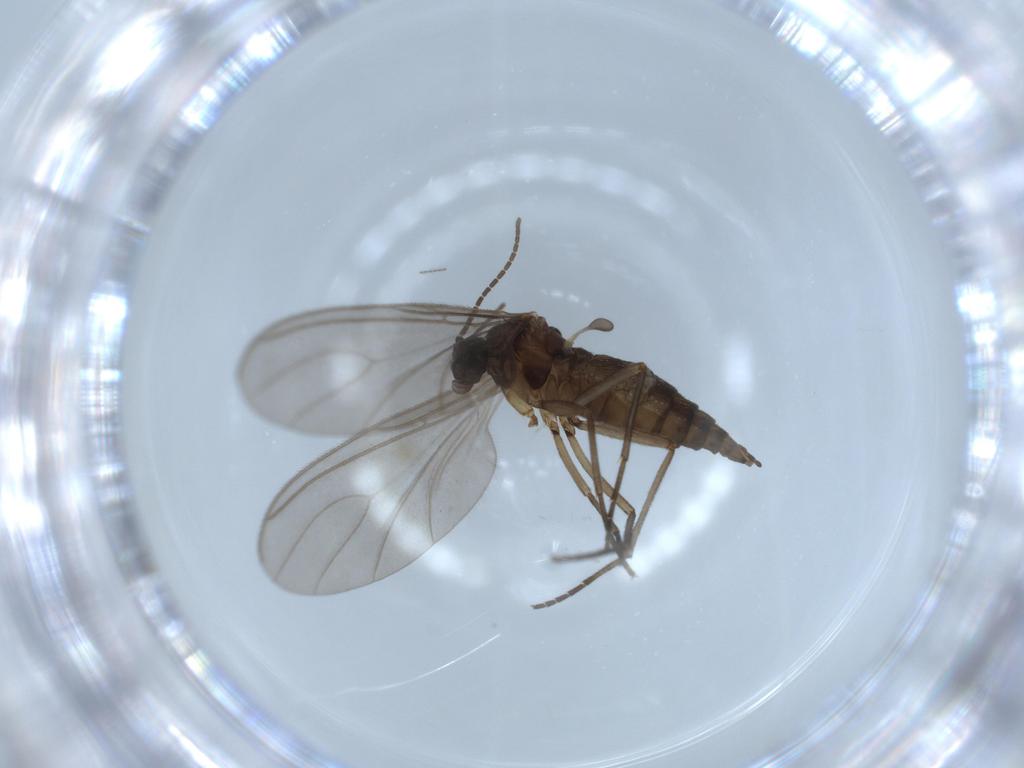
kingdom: Animalia
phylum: Arthropoda
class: Insecta
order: Diptera
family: Sciaridae
